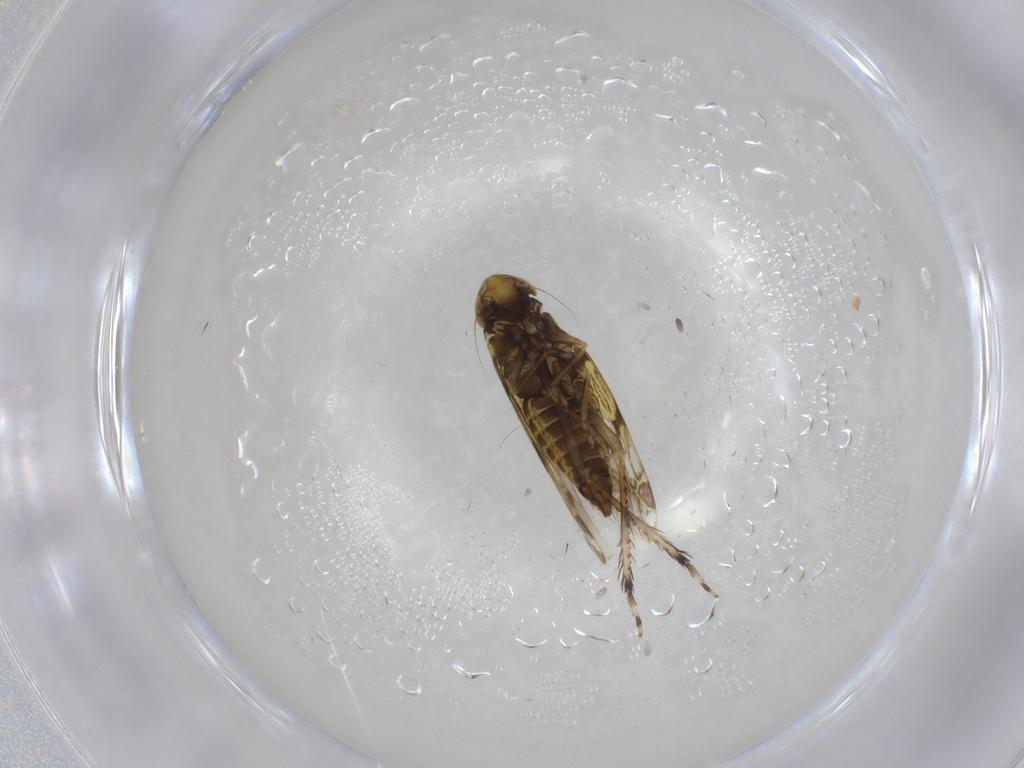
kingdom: Animalia
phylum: Arthropoda
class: Insecta
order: Hemiptera
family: Cicadellidae
